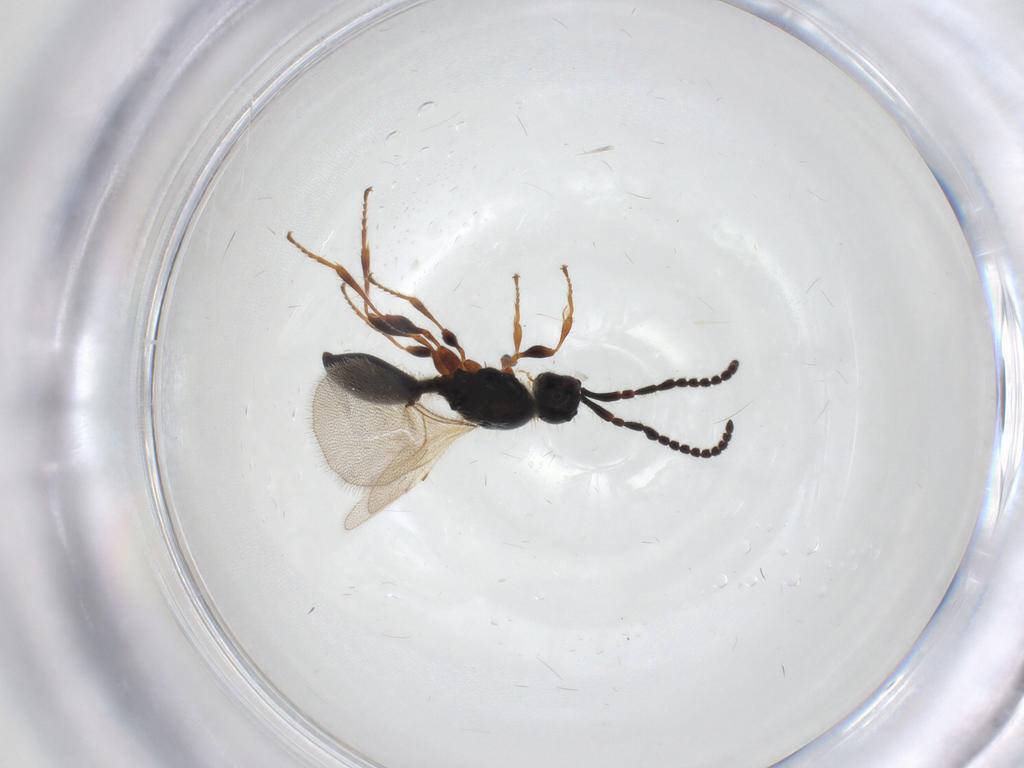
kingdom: Animalia
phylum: Arthropoda
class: Insecta
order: Hymenoptera
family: Diapriidae
